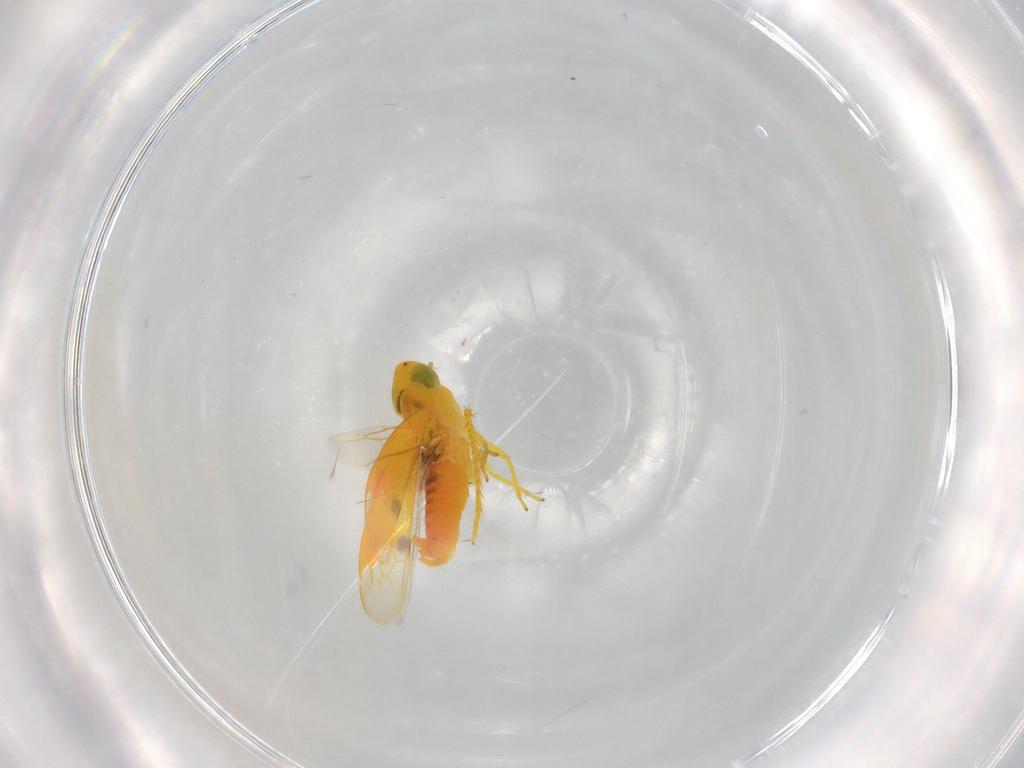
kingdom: Animalia
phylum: Arthropoda
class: Insecta
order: Hemiptera
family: Cicadellidae
